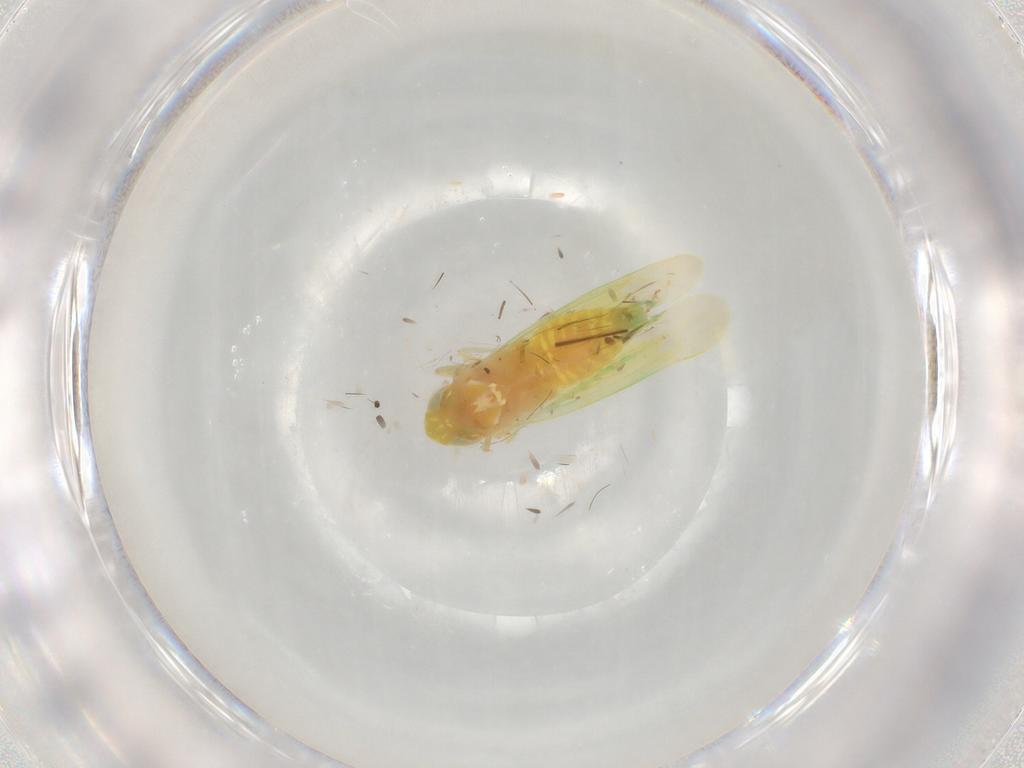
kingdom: Animalia
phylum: Arthropoda
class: Insecta
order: Hemiptera
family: Cicadellidae
